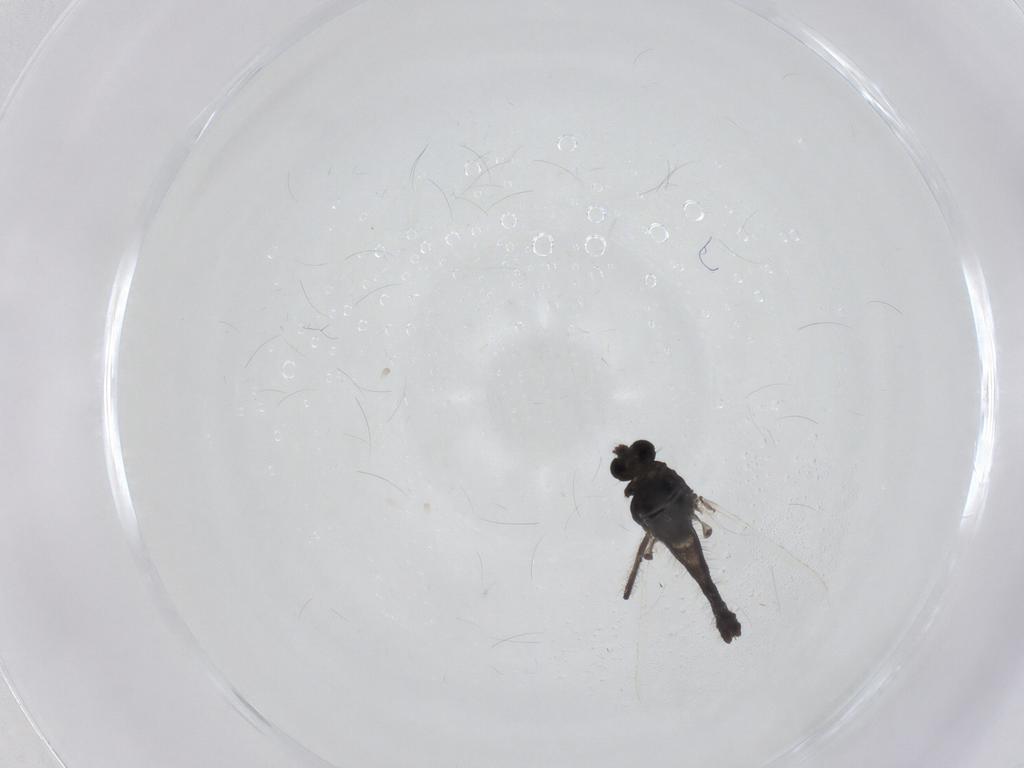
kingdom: Animalia
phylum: Arthropoda
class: Insecta
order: Diptera
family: Chironomidae
